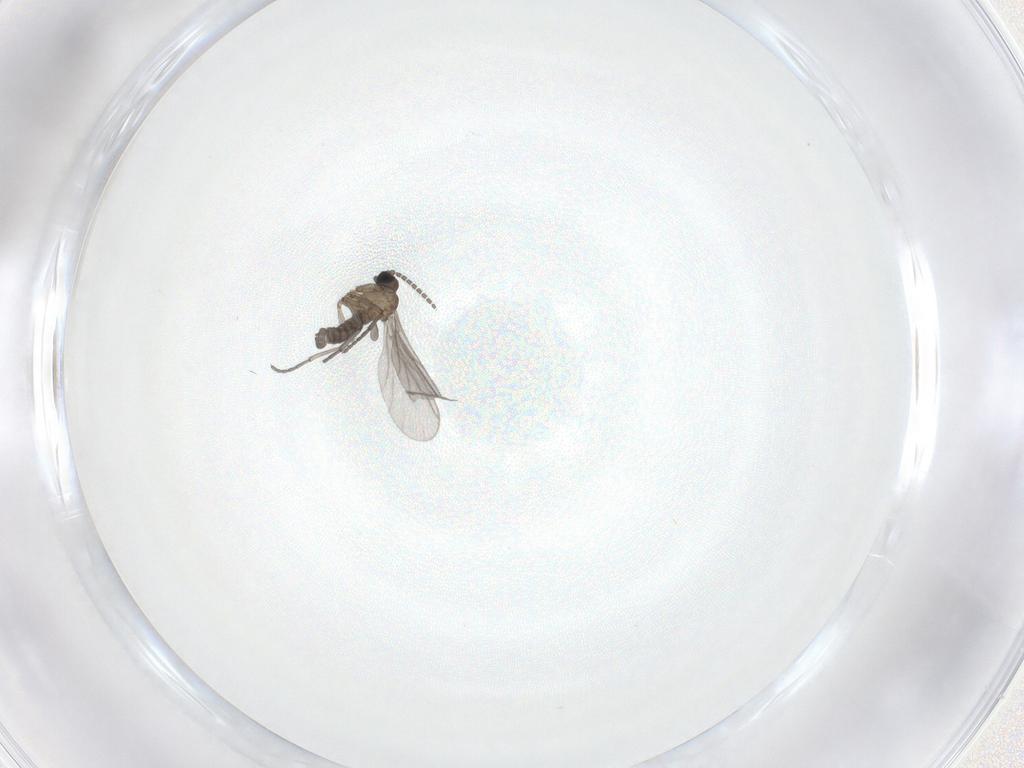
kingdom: Animalia
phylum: Arthropoda
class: Insecta
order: Diptera
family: Sciaridae
